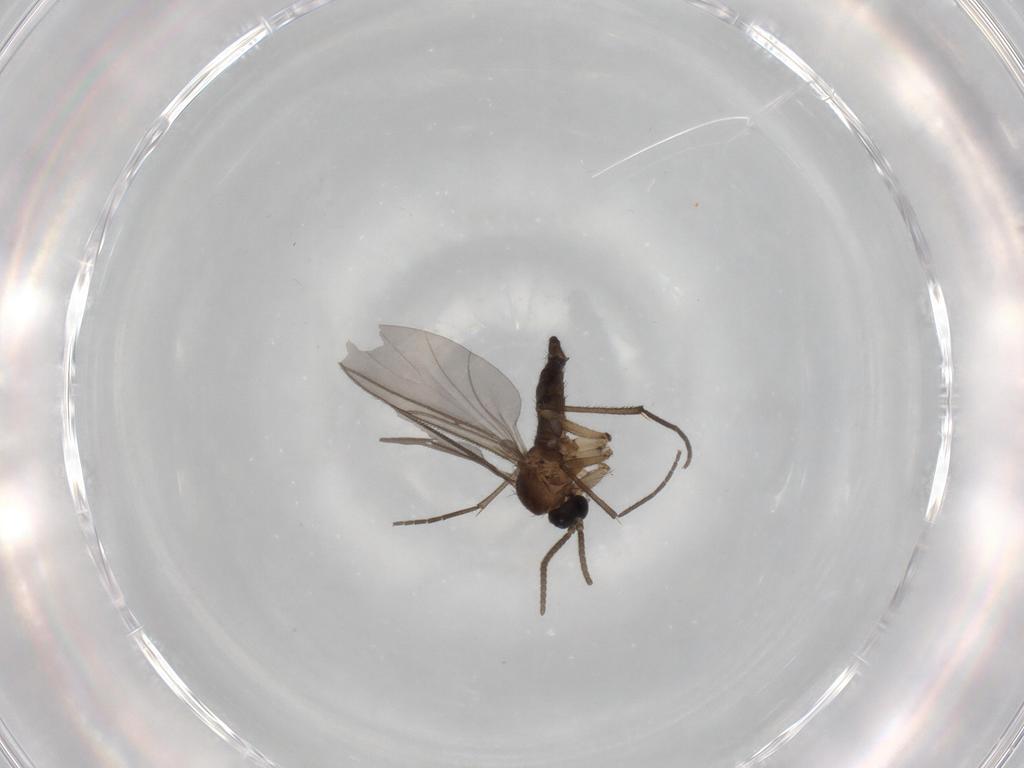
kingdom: Animalia
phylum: Arthropoda
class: Insecta
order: Diptera
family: Sciaridae
